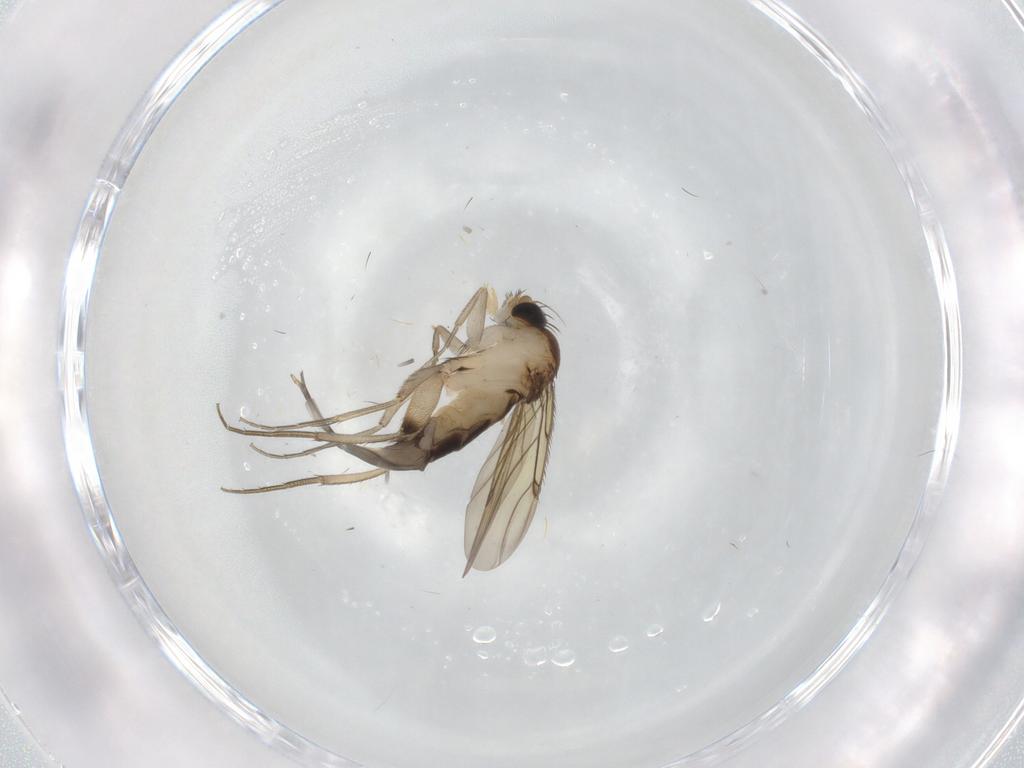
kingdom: Animalia
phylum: Arthropoda
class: Insecta
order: Diptera
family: Phoridae
